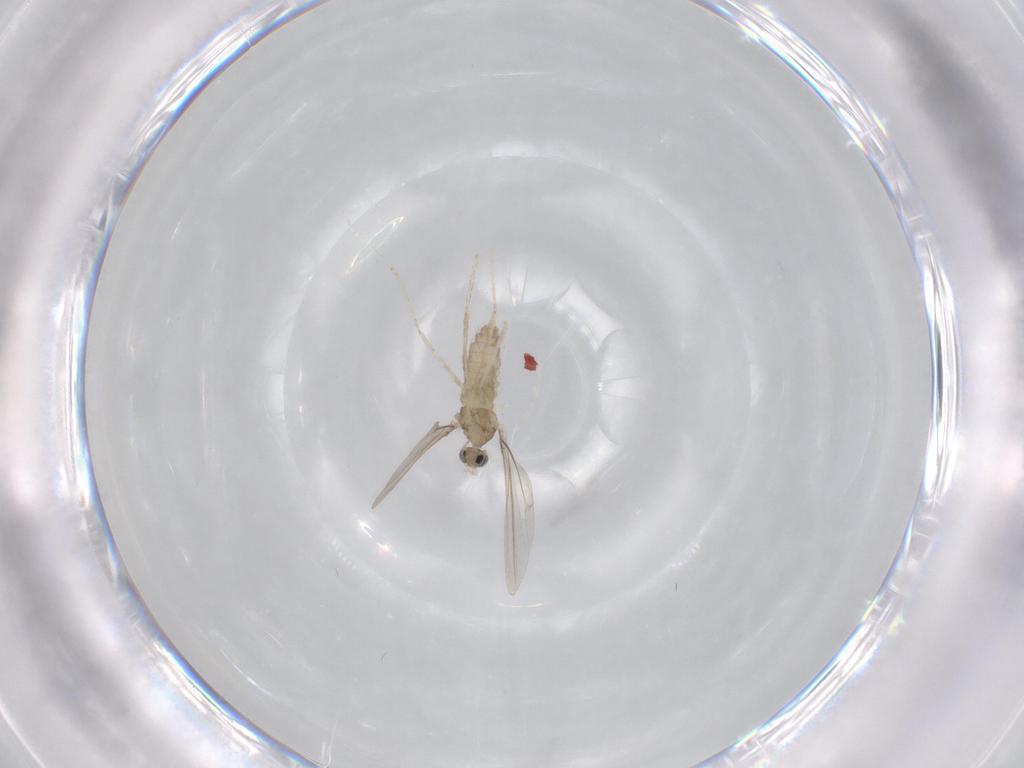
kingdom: Animalia
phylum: Arthropoda
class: Insecta
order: Diptera
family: Cecidomyiidae
